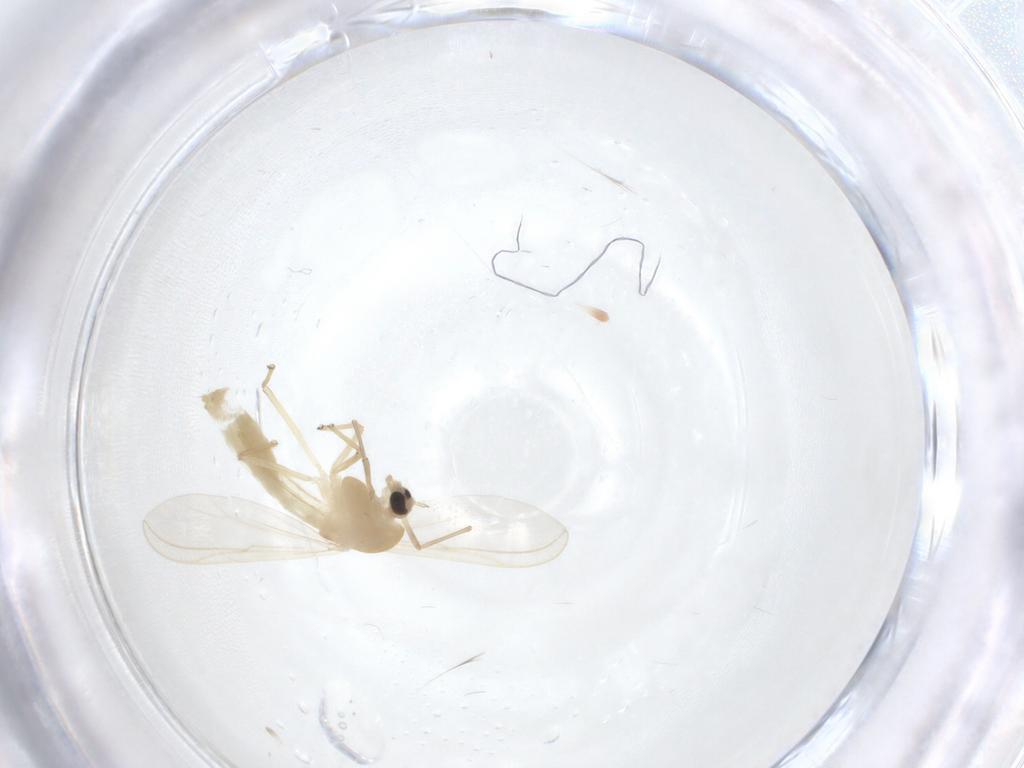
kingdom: Animalia
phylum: Arthropoda
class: Insecta
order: Diptera
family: Chironomidae
